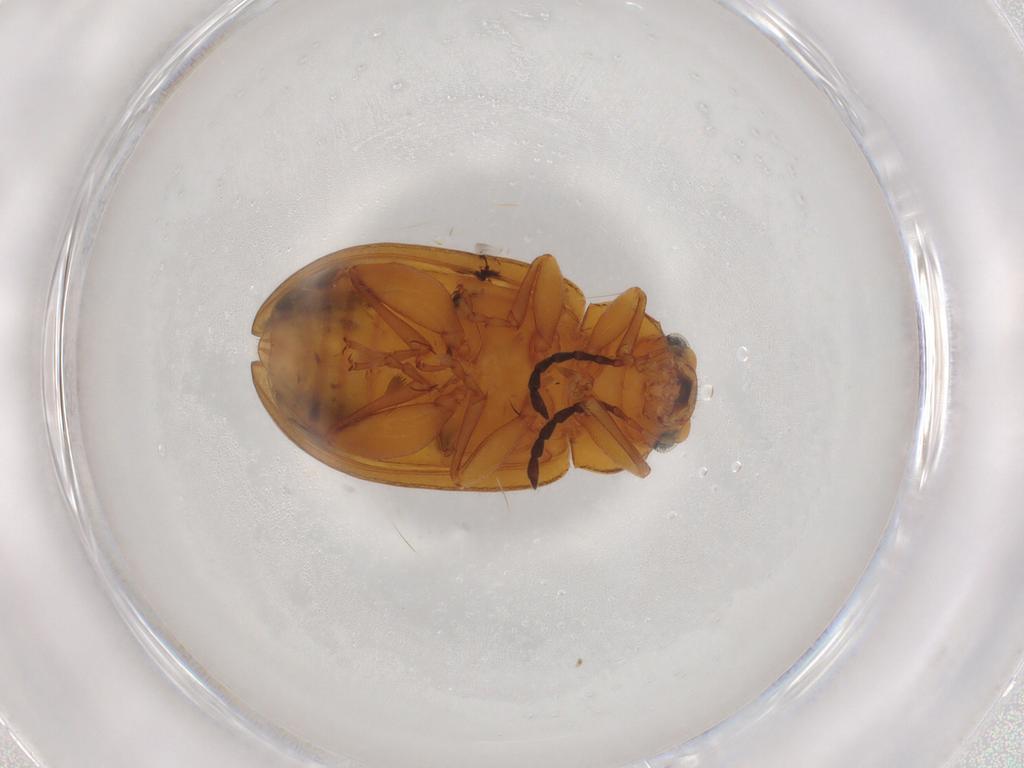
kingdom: Animalia
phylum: Arthropoda
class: Insecta
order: Coleoptera
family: Chrysomelidae
